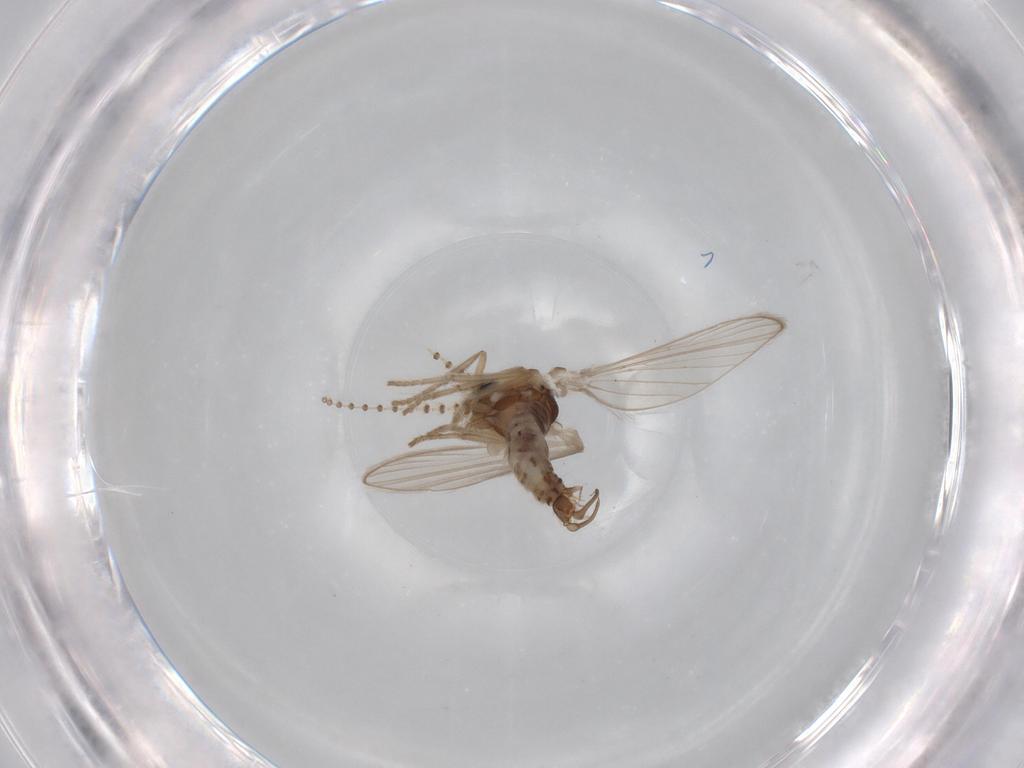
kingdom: Animalia
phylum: Arthropoda
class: Insecta
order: Diptera
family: Psychodidae
